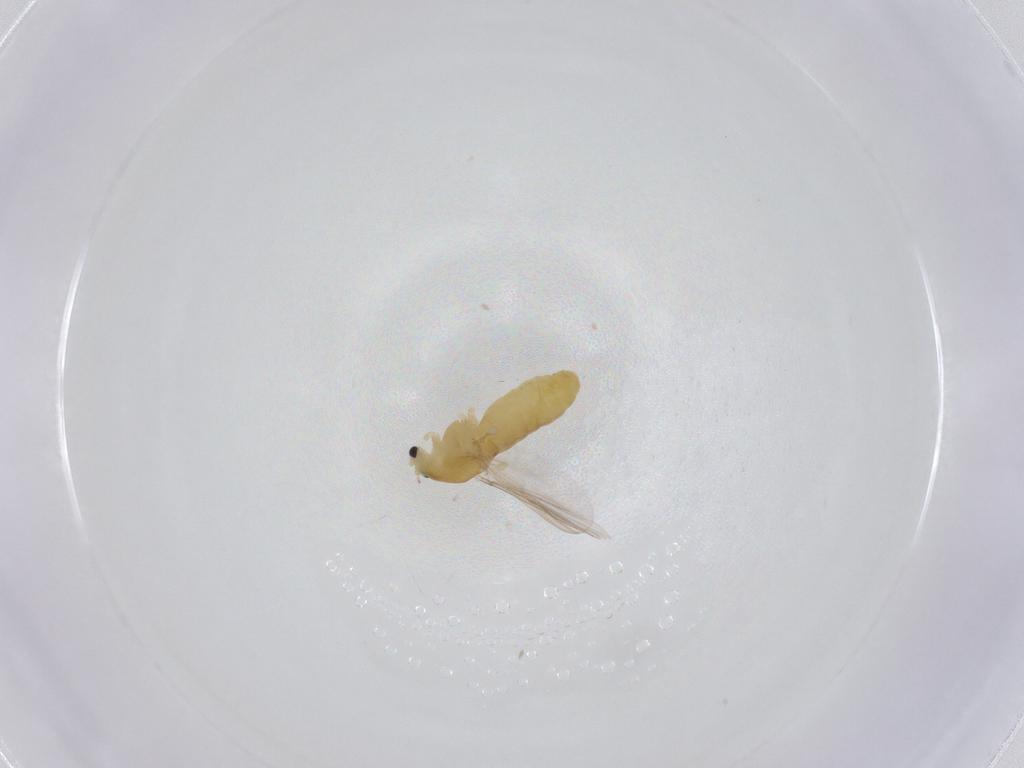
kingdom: Animalia
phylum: Arthropoda
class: Insecta
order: Diptera
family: Chironomidae
